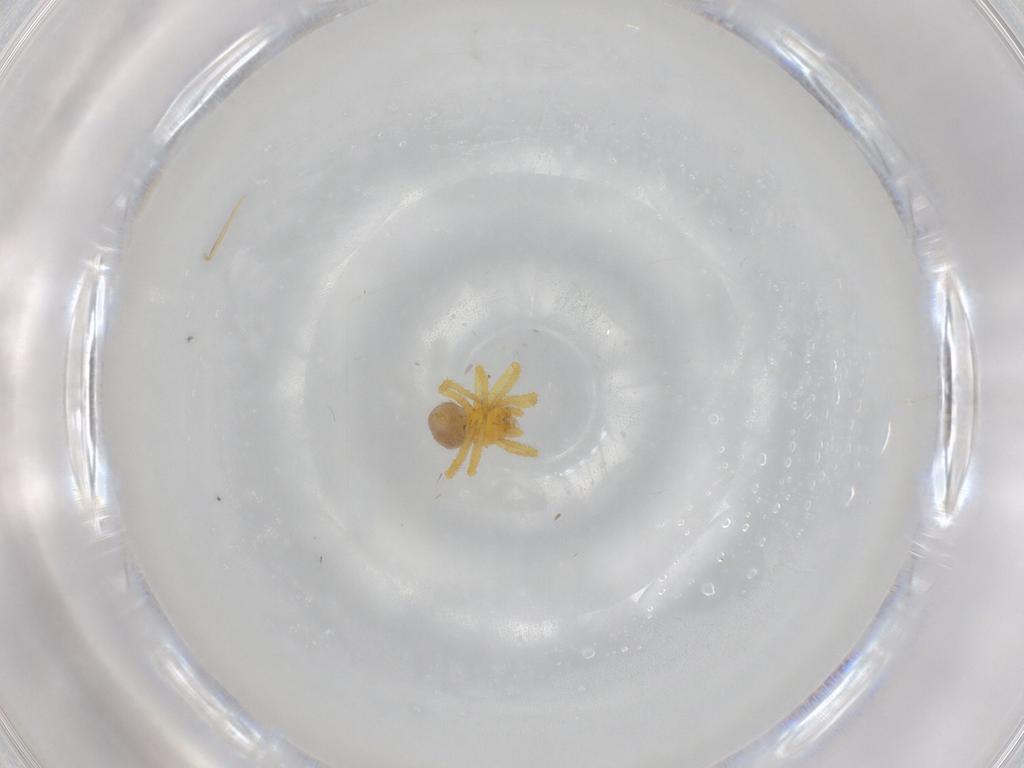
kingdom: Animalia
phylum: Arthropoda
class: Arachnida
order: Araneae
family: Theridiidae
